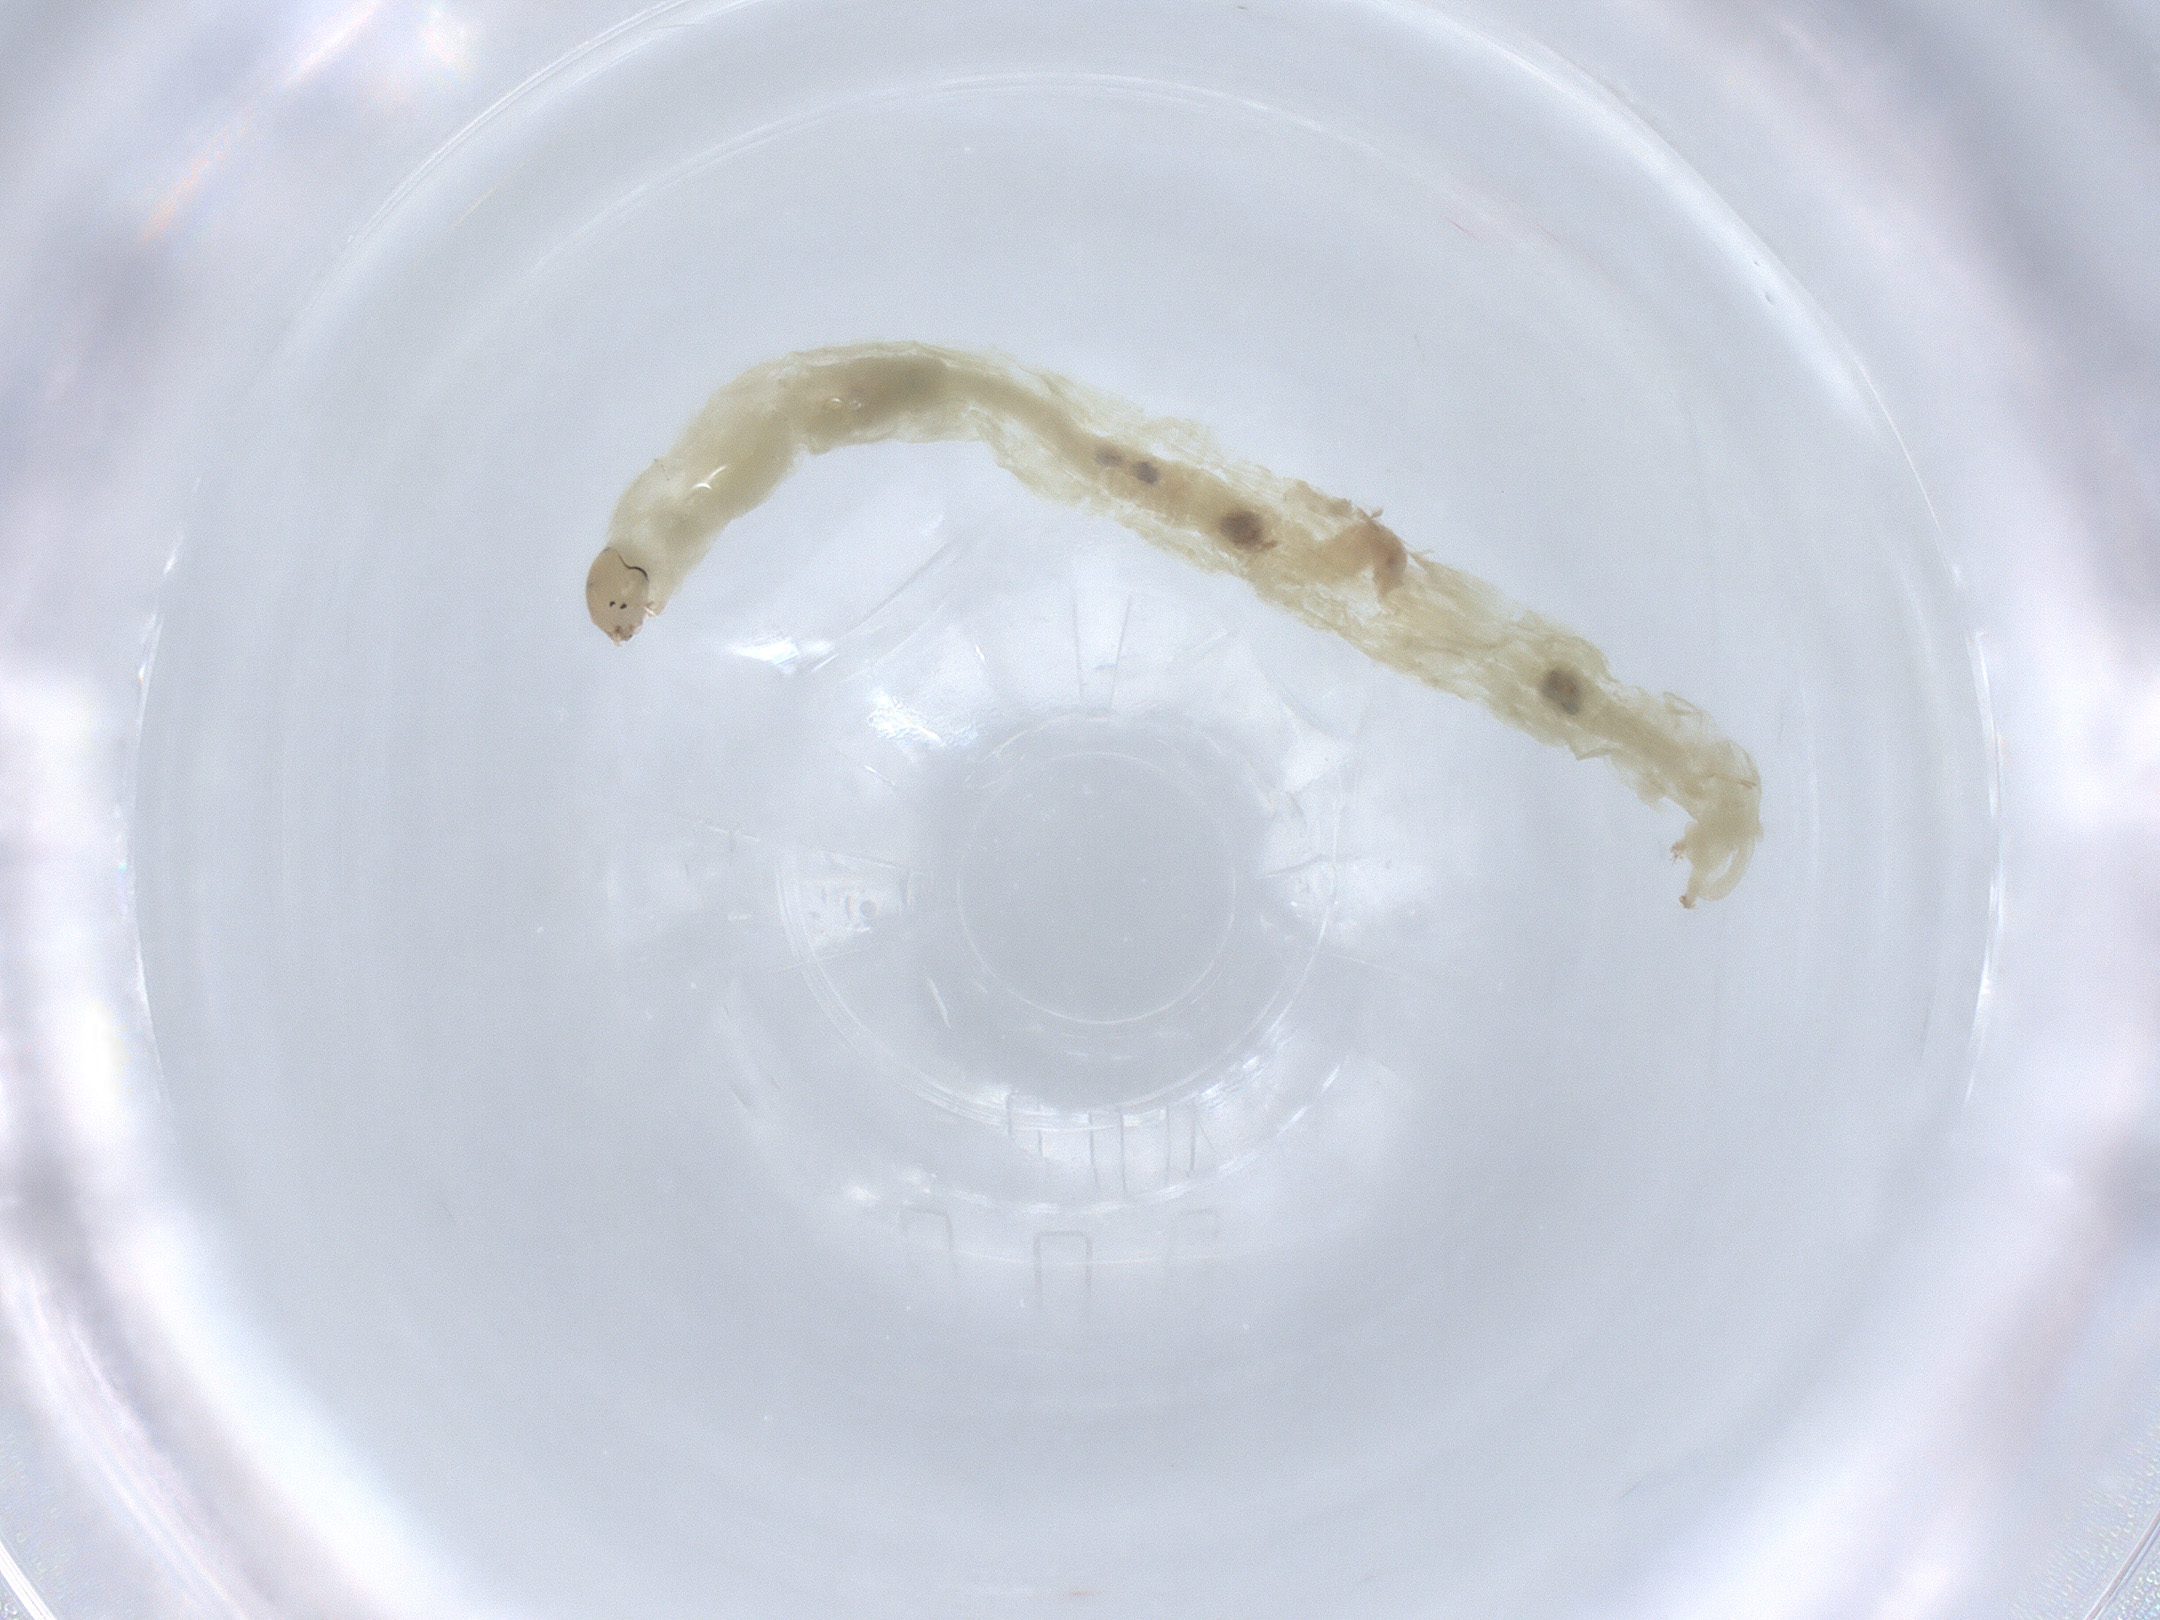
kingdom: Animalia
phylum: Arthropoda
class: Insecta
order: Diptera
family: Chironomidae
